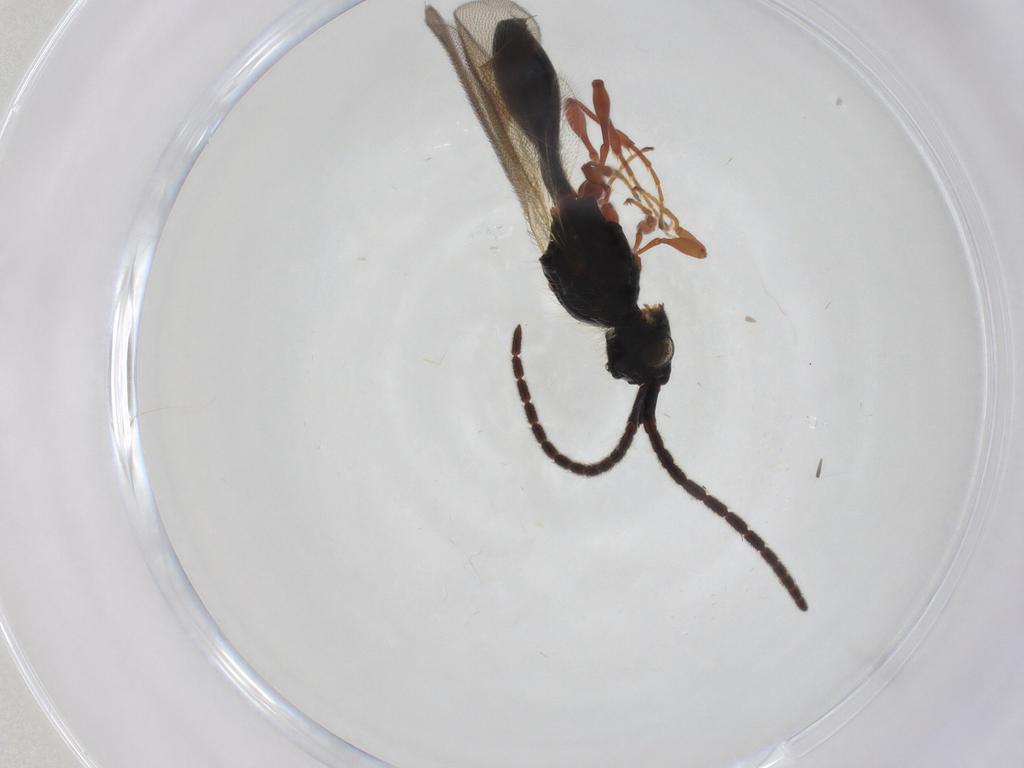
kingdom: Animalia
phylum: Arthropoda
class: Insecta
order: Hymenoptera
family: Diapriidae
